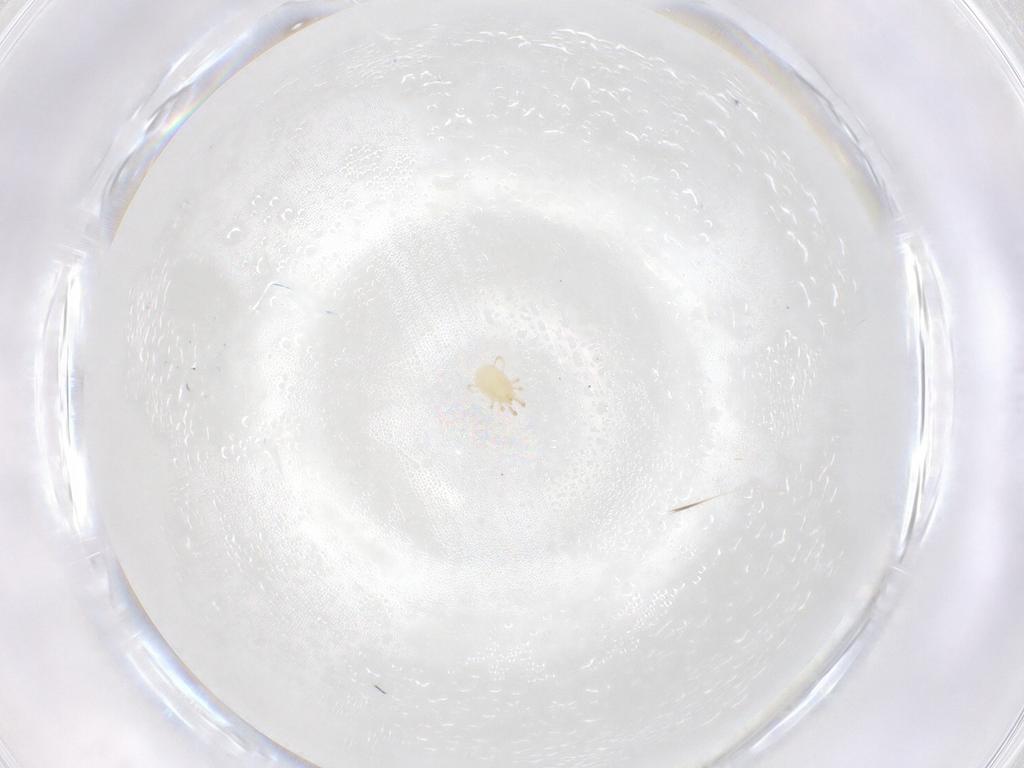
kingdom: Animalia
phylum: Arthropoda
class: Arachnida
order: Mesostigmata
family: Phytoseiidae
